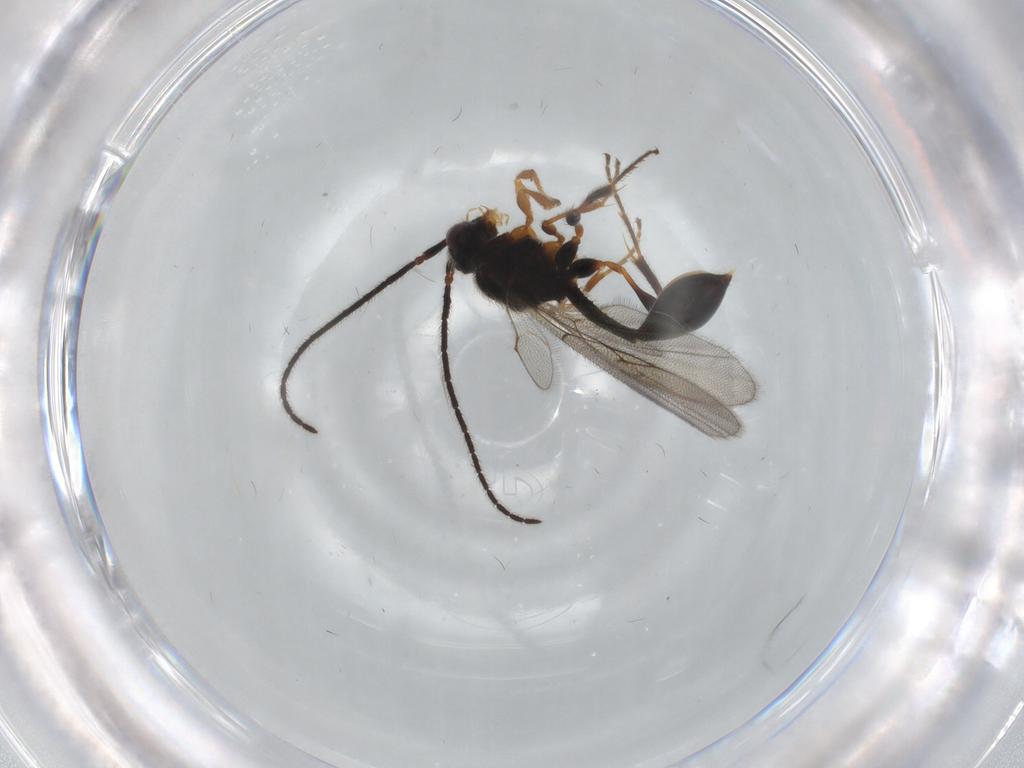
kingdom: Animalia
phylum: Arthropoda
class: Insecta
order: Hymenoptera
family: Diapriidae
